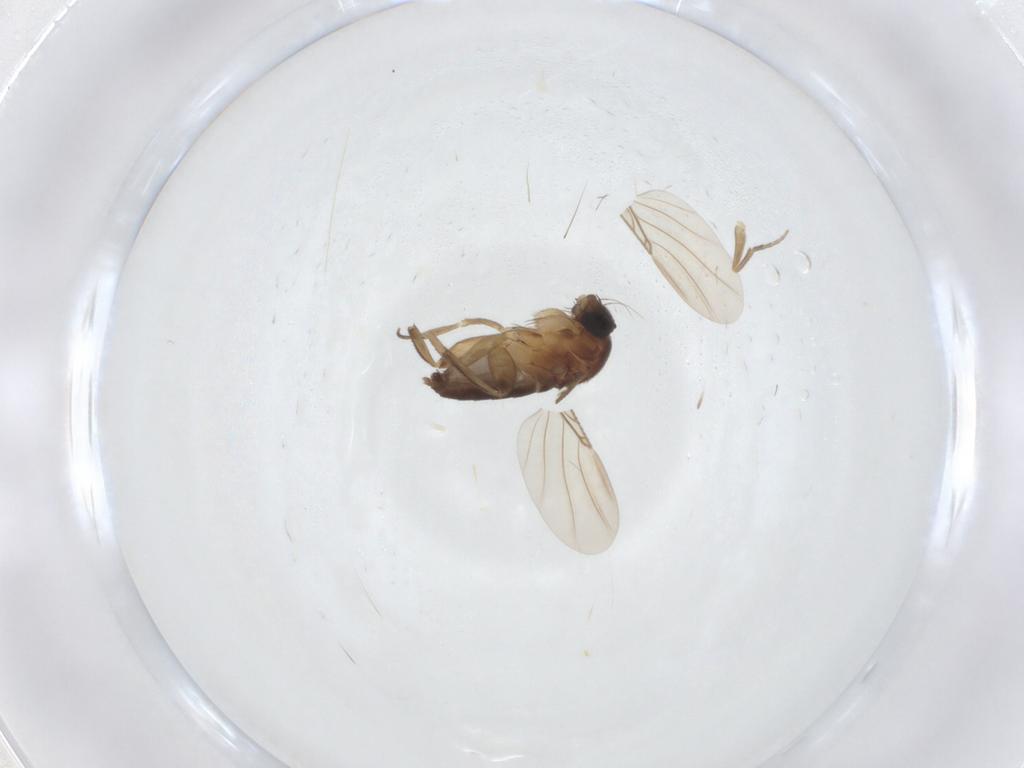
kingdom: Animalia
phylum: Arthropoda
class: Insecta
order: Diptera
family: Phoridae
